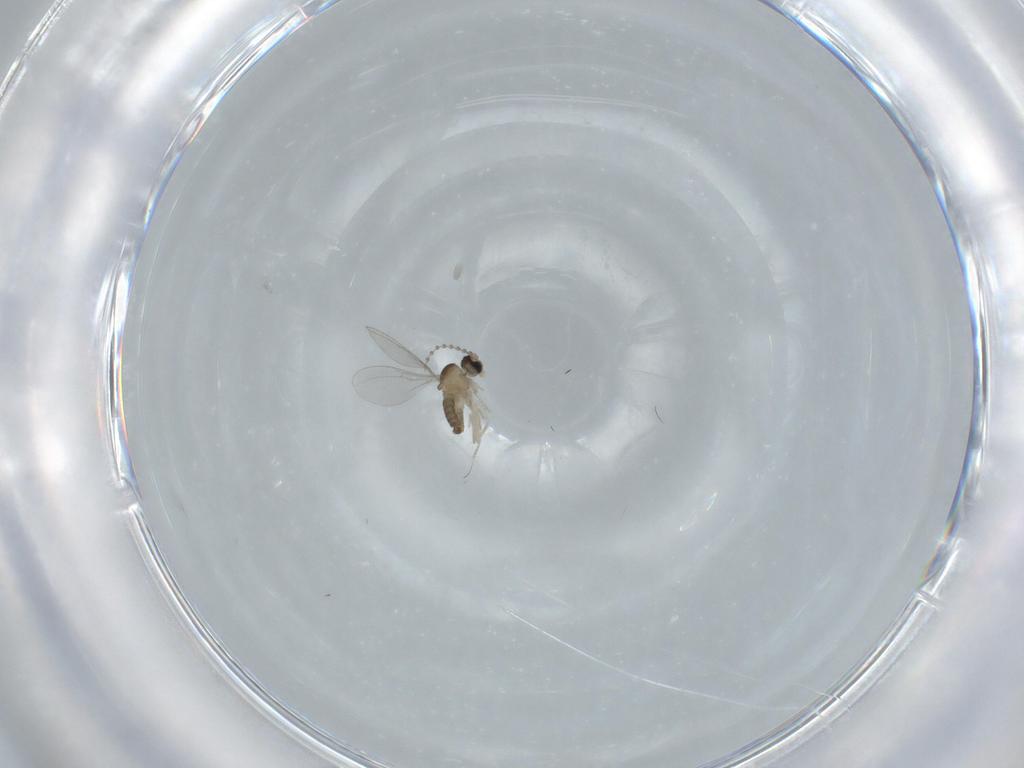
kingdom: Animalia
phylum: Arthropoda
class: Insecta
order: Diptera
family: Cecidomyiidae
